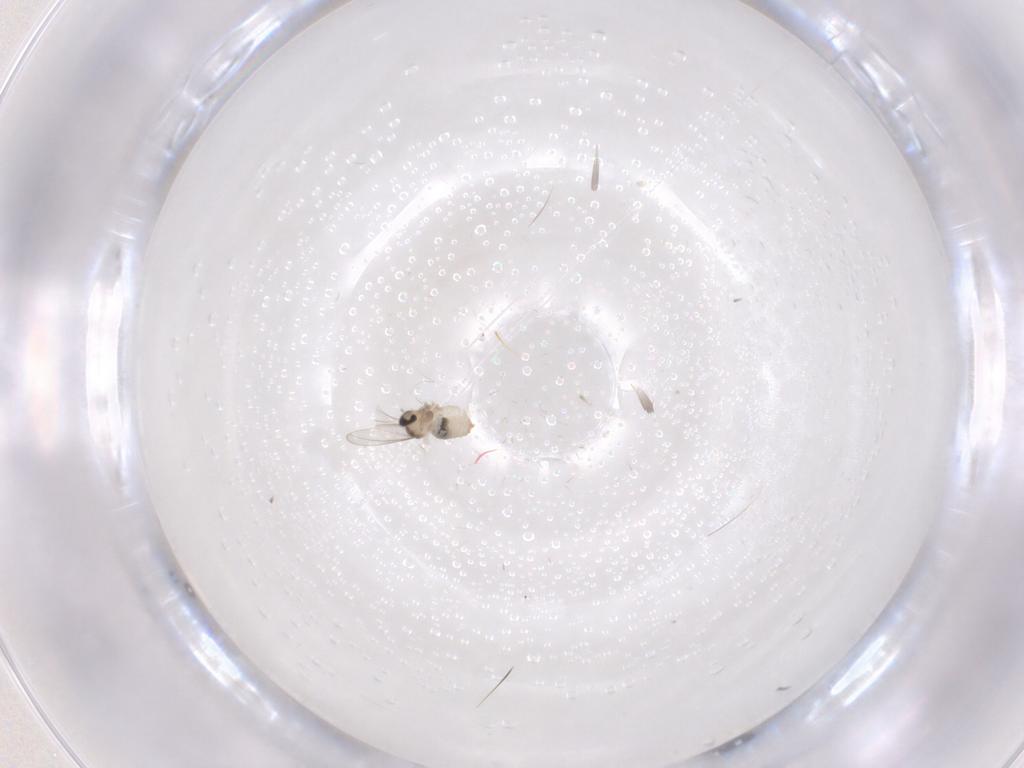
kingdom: Animalia
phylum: Arthropoda
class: Insecta
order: Diptera
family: Cecidomyiidae
